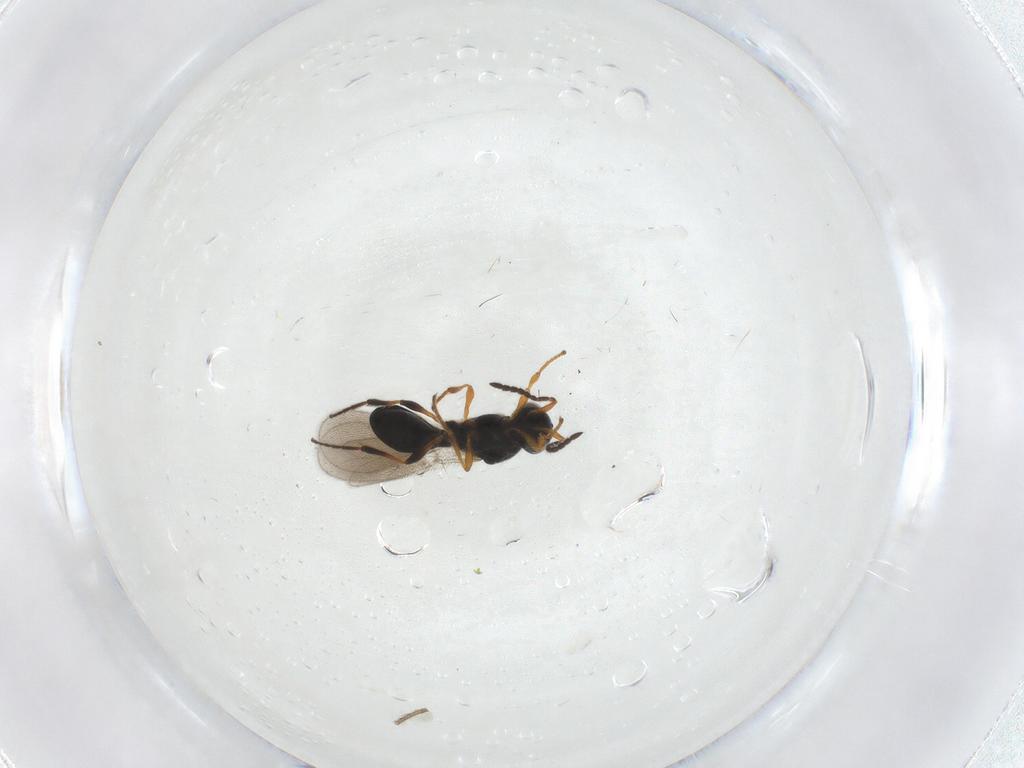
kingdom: Animalia
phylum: Arthropoda
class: Insecta
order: Hymenoptera
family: Platygastridae
